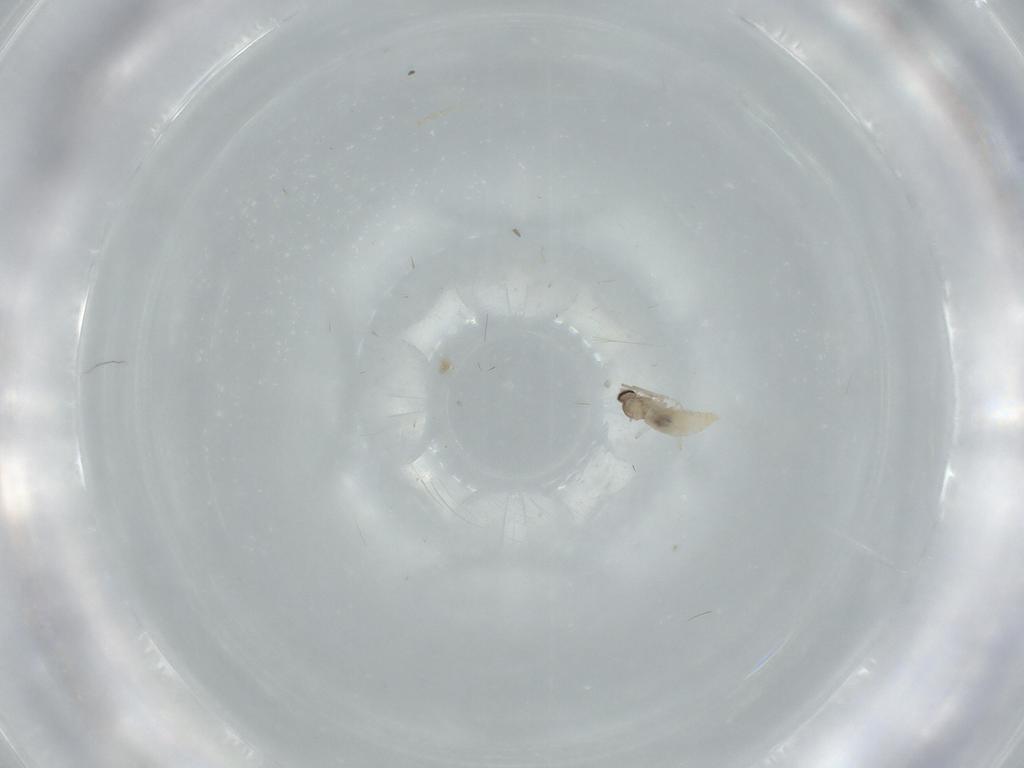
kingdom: Animalia
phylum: Arthropoda
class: Insecta
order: Diptera
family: Cecidomyiidae
